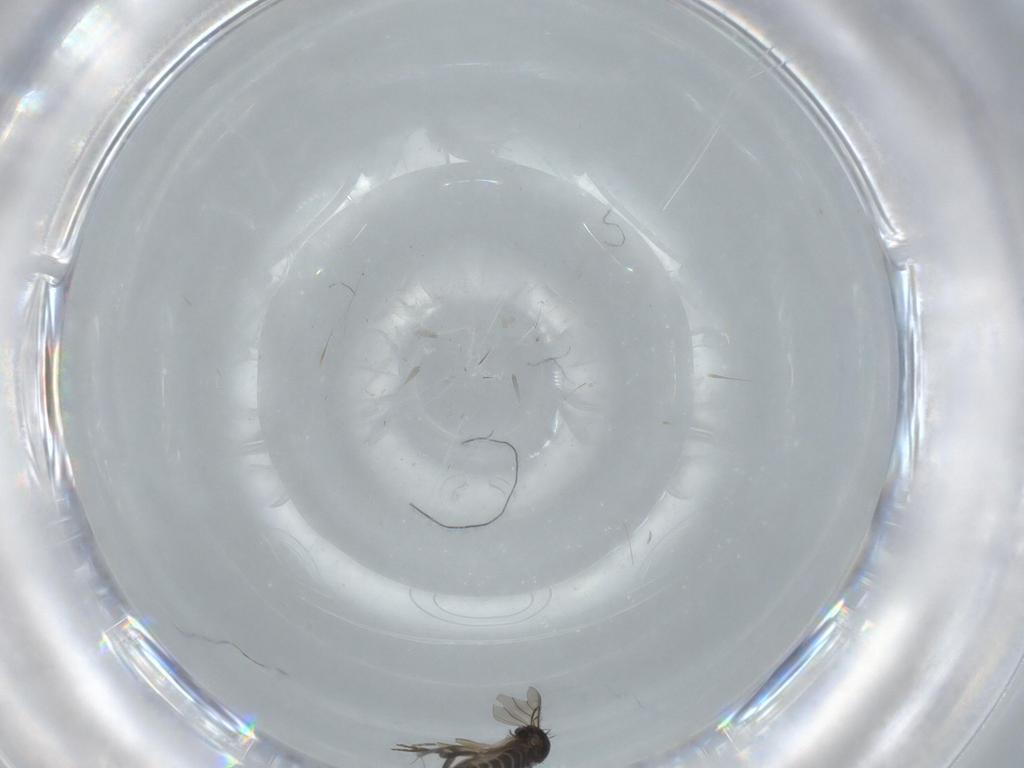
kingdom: Animalia
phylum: Arthropoda
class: Insecta
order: Diptera
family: Phoridae
